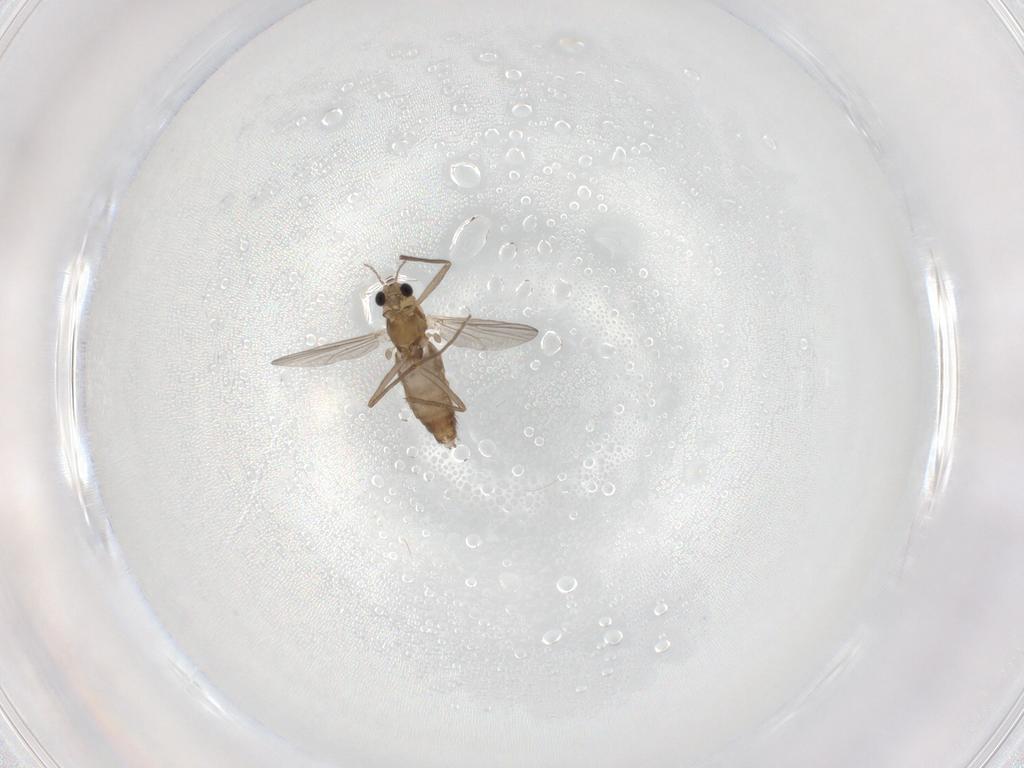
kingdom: Animalia
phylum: Arthropoda
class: Insecta
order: Diptera
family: Chironomidae
